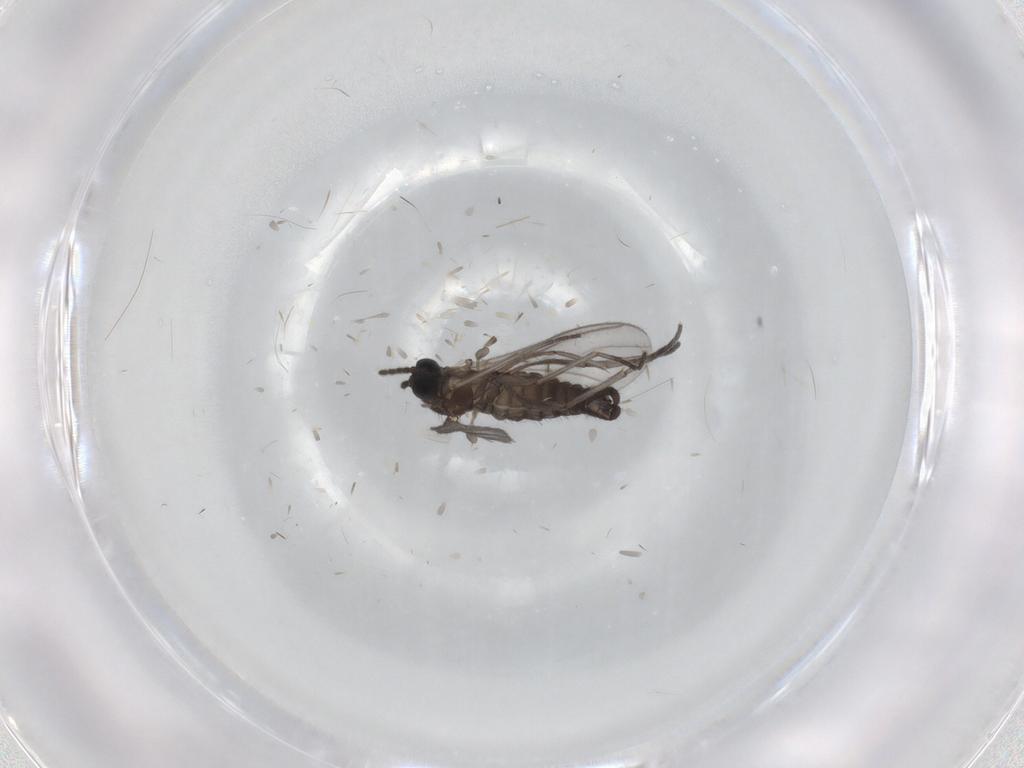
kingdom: Animalia
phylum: Arthropoda
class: Insecta
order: Diptera
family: Sciaridae
